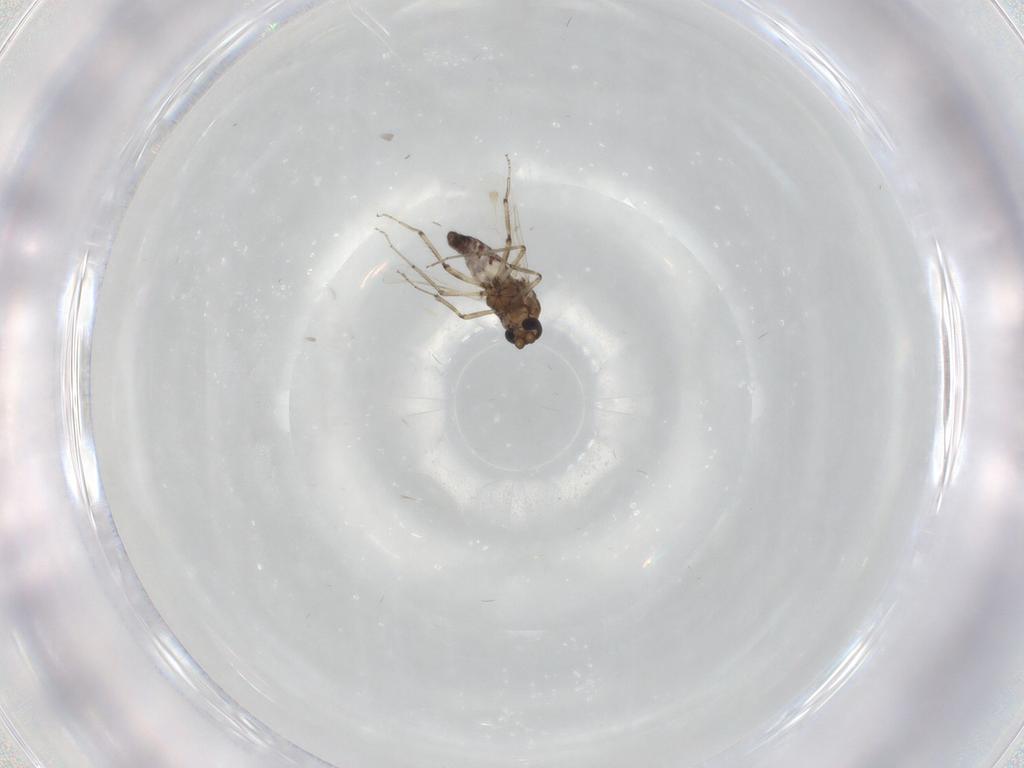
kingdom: Animalia
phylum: Arthropoda
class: Insecta
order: Diptera
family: Ceratopogonidae
